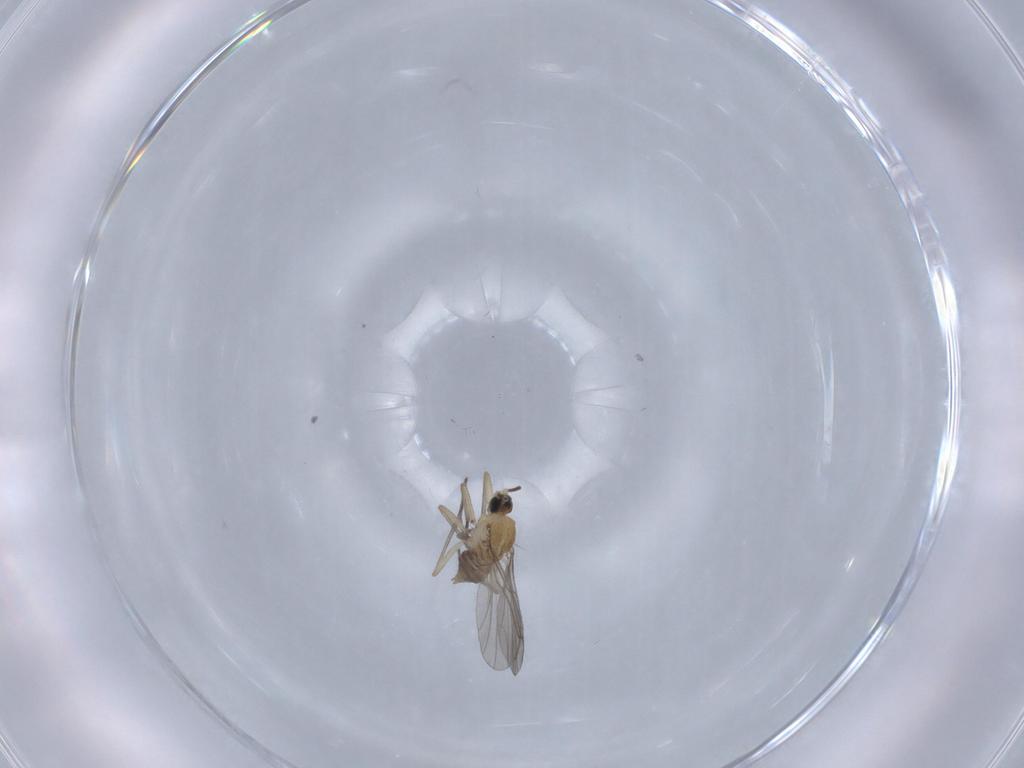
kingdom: Animalia
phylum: Arthropoda
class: Insecta
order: Diptera
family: Sciaridae
